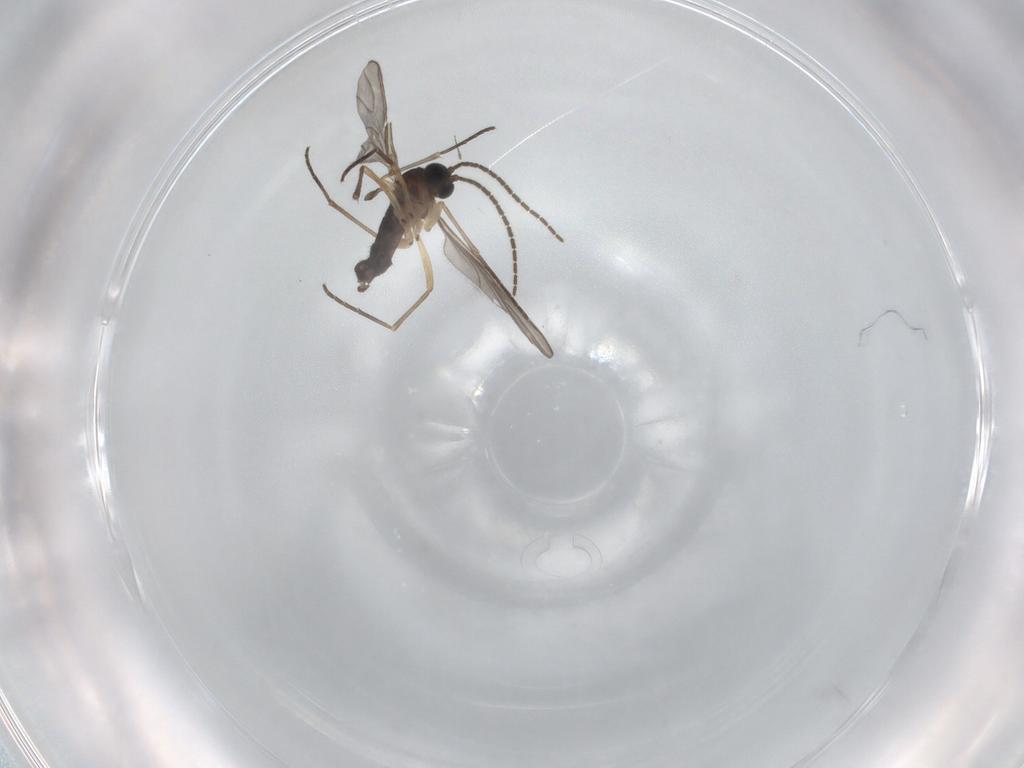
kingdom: Animalia
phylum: Arthropoda
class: Insecta
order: Diptera
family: Sciaridae
